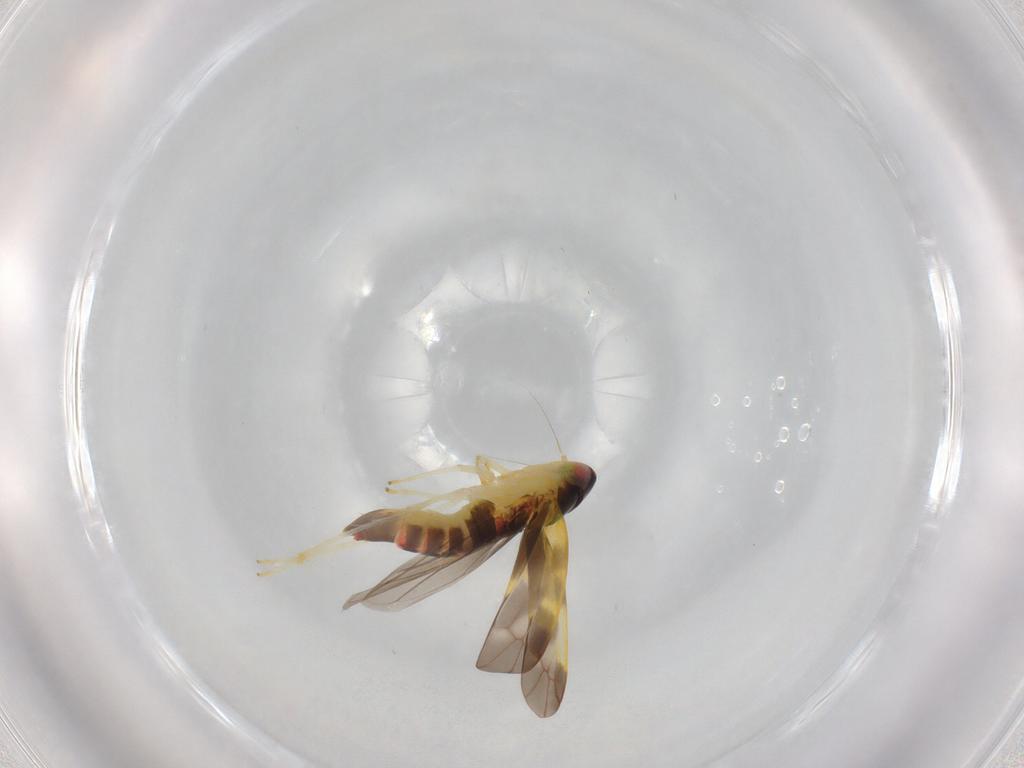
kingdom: Animalia
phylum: Arthropoda
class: Insecta
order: Hemiptera
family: Cicadellidae
